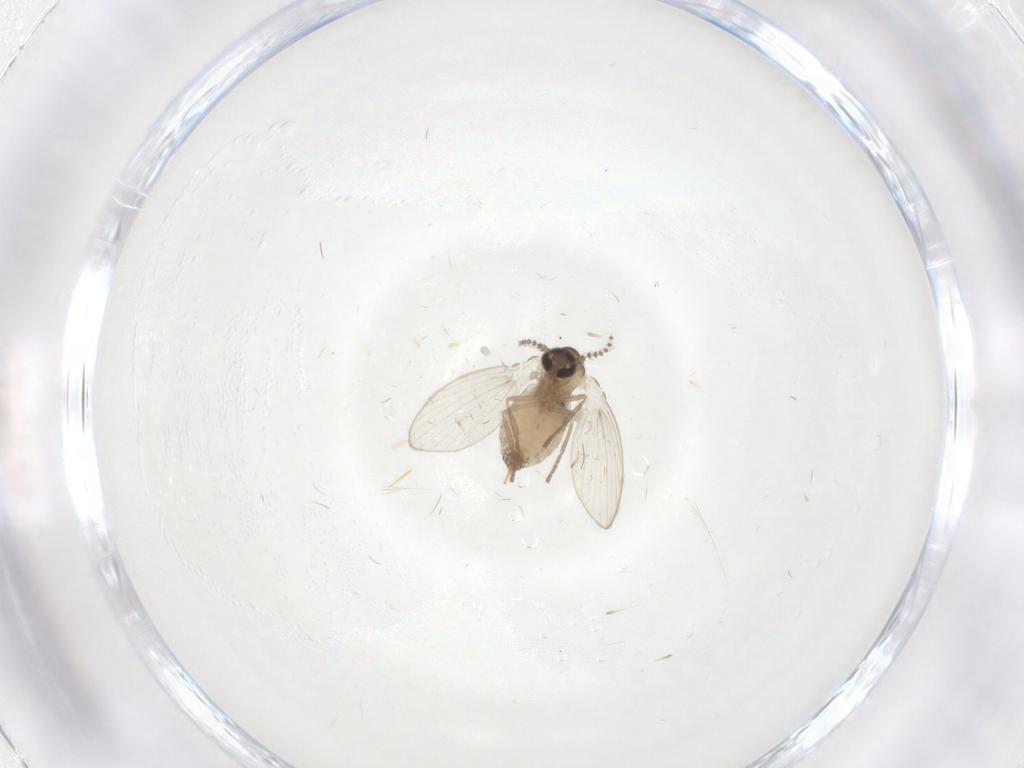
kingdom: Animalia
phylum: Arthropoda
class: Insecta
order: Diptera
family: Psychodidae
